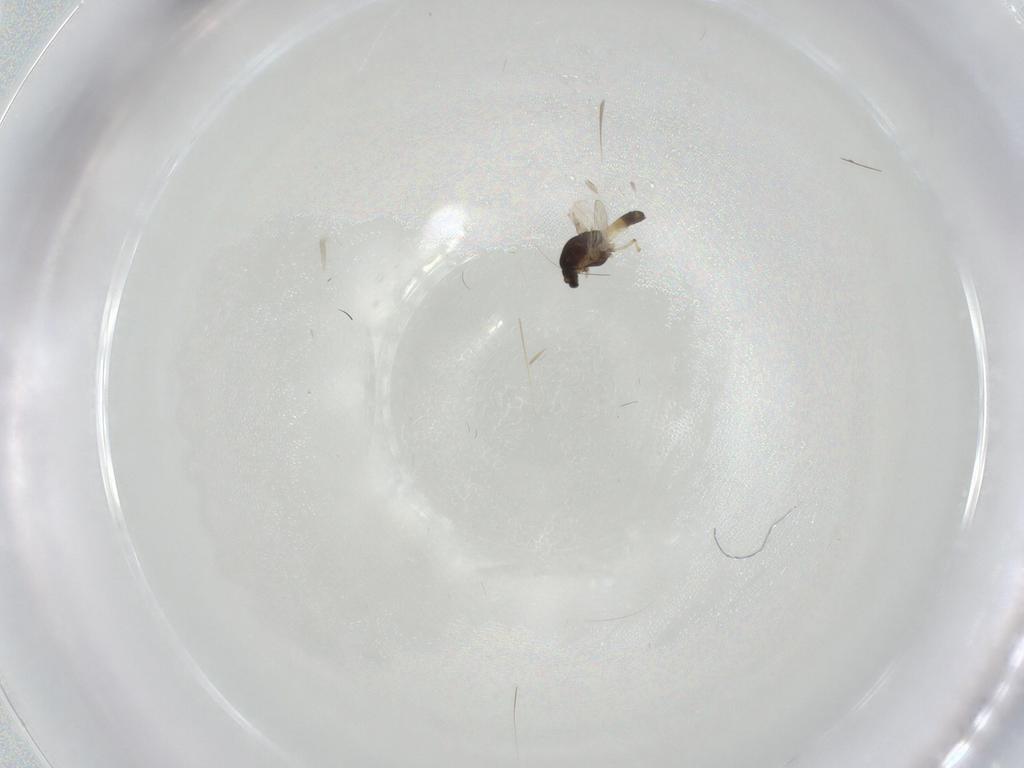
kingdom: Animalia
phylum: Arthropoda
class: Insecta
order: Diptera
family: Chironomidae
